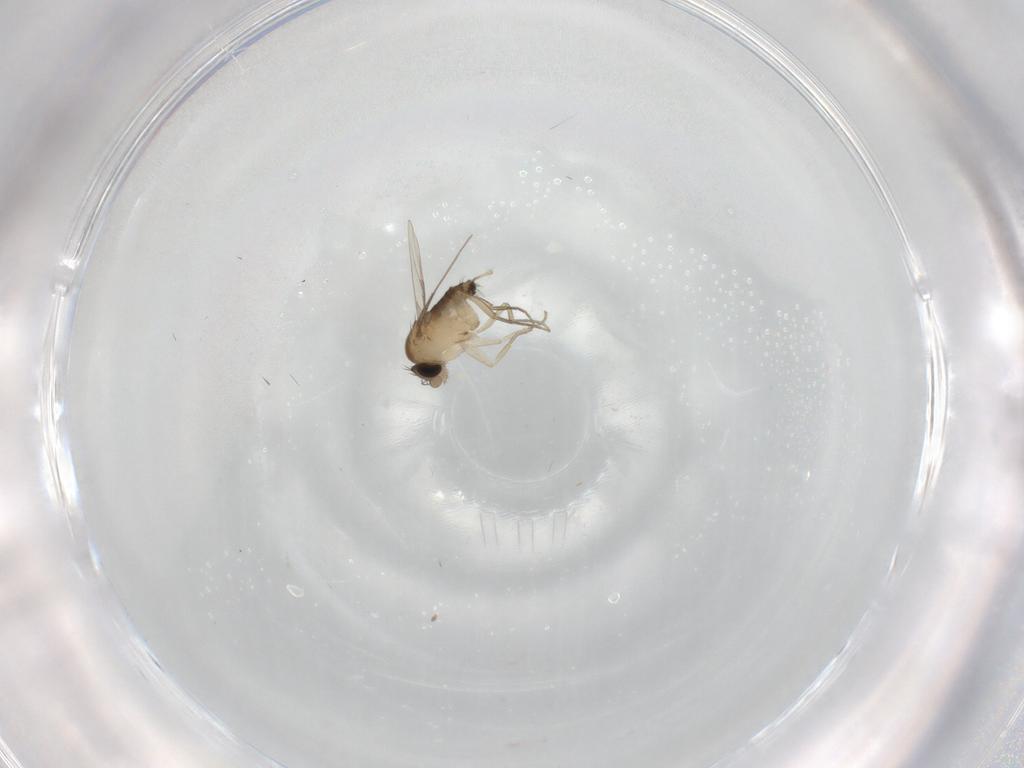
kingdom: Animalia
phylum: Arthropoda
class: Insecta
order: Diptera
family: Phoridae
